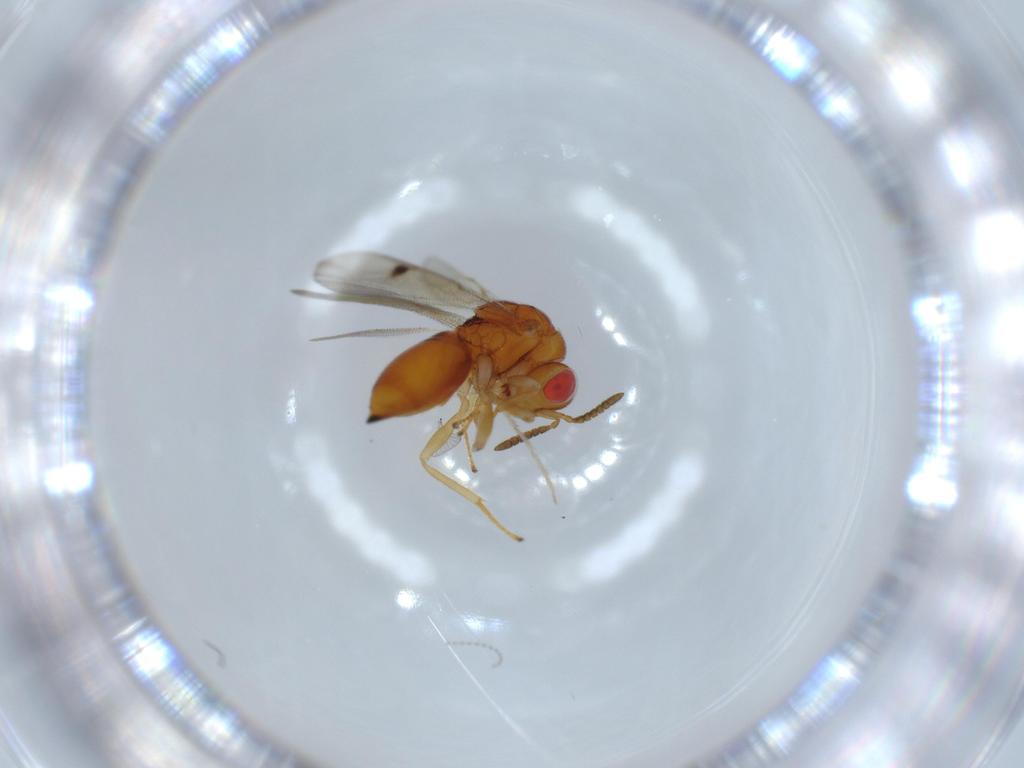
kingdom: Animalia
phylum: Arthropoda
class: Insecta
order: Hymenoptera
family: Eurytomidae
